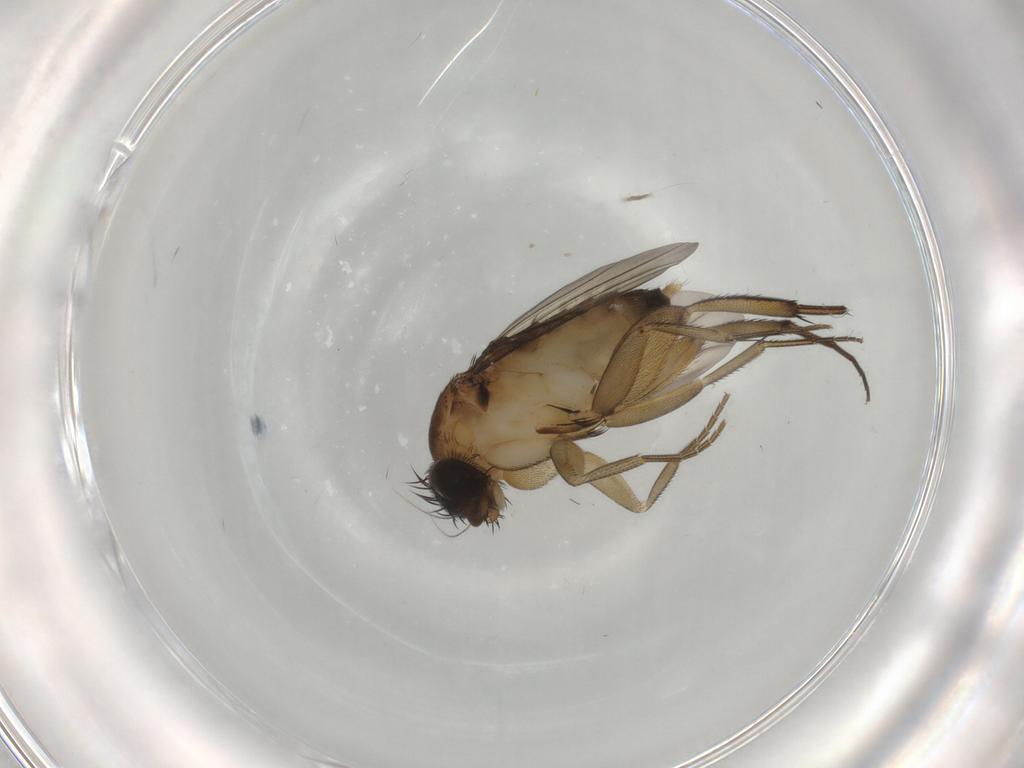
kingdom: Animalia
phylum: Arthropoda
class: Insecta
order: Diptera
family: Phoridae
